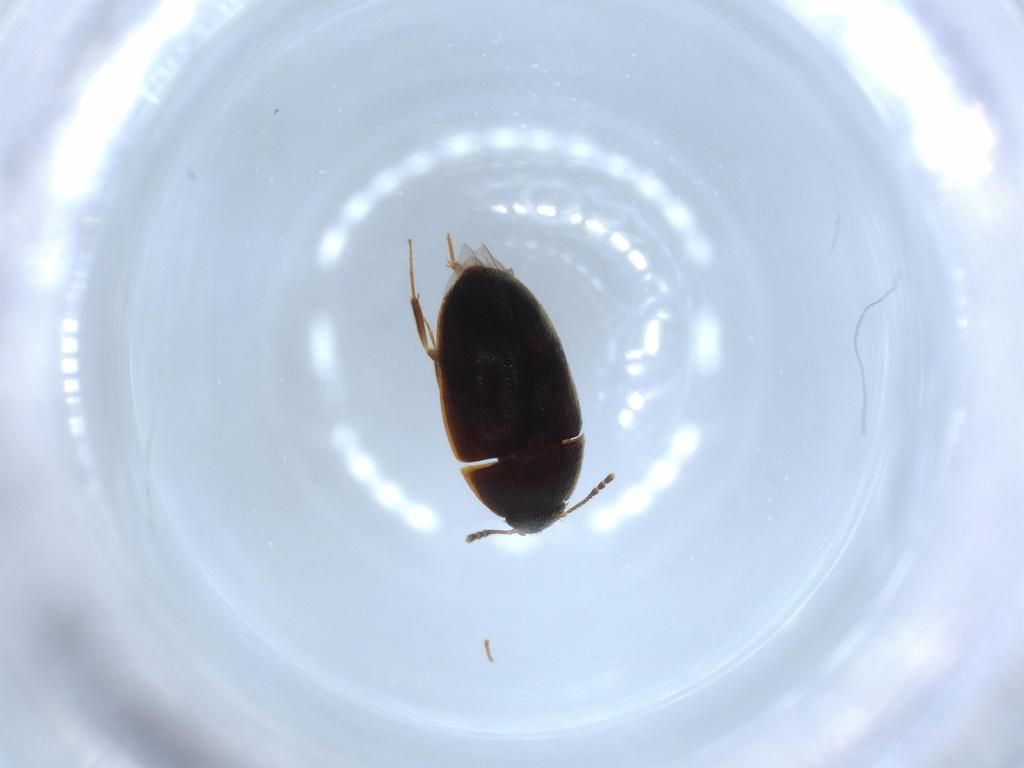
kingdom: Animalia
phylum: Arthropoda
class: Insecta
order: Coleoptera
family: Mycetophagidae
